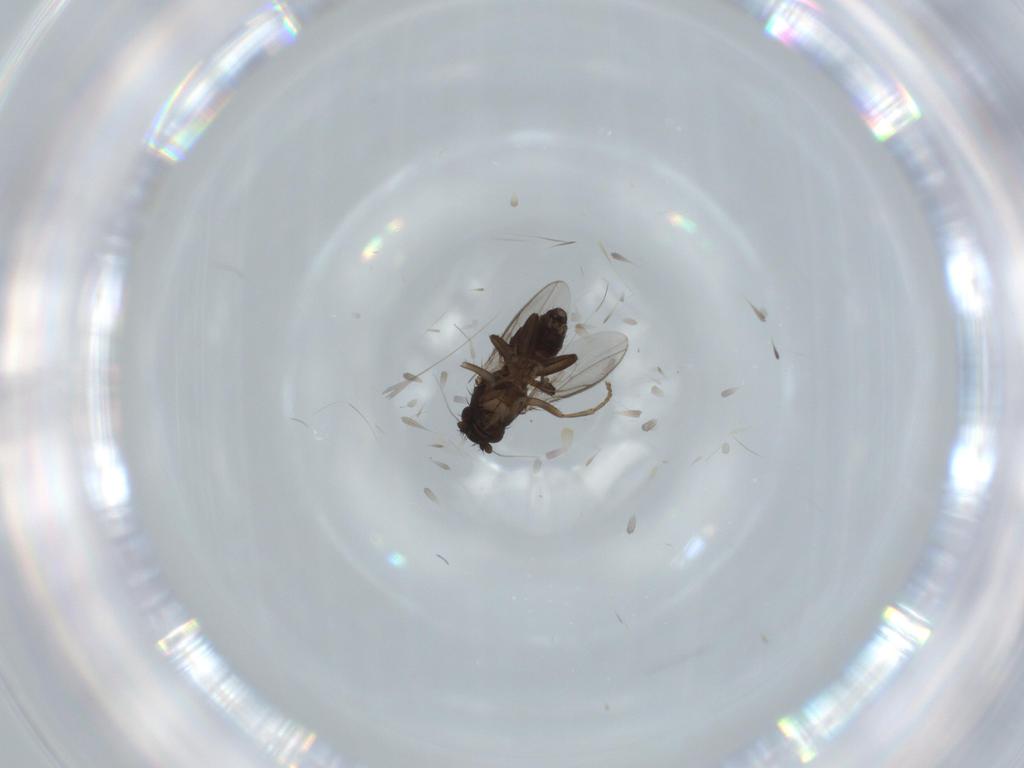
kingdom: Animalia
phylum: Arthropoda
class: Insecta
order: Diptera
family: Sphaeroceridae
